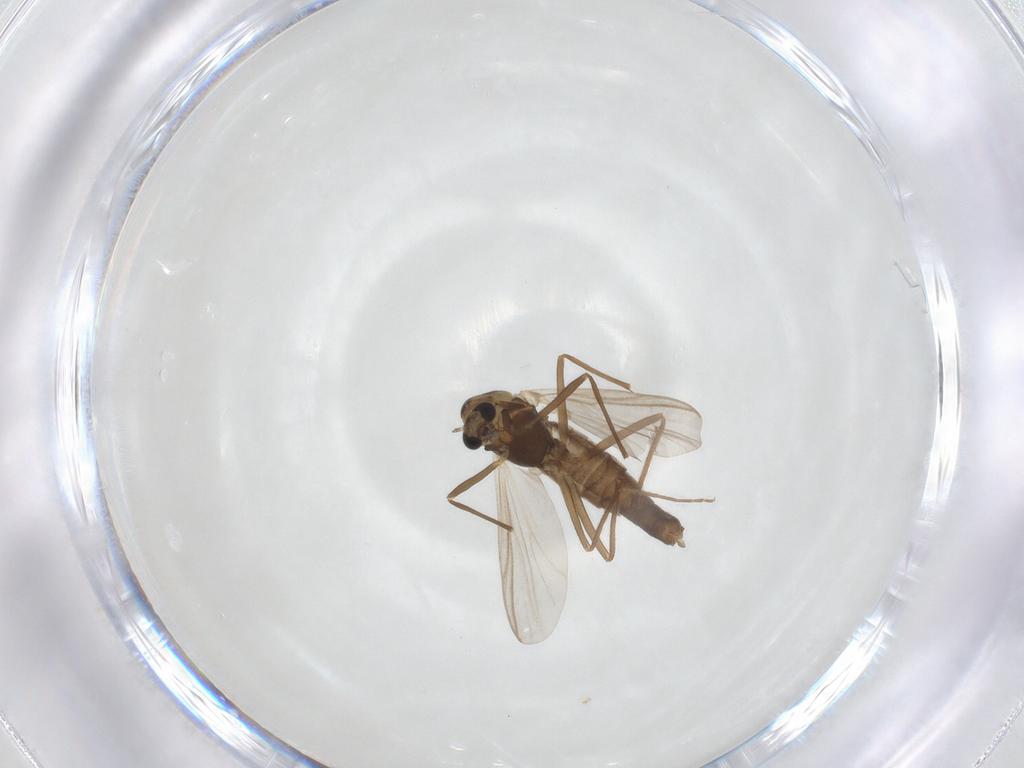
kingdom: Animalia
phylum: Arthropoda
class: Insecta
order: Diptera
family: Chironomidae
